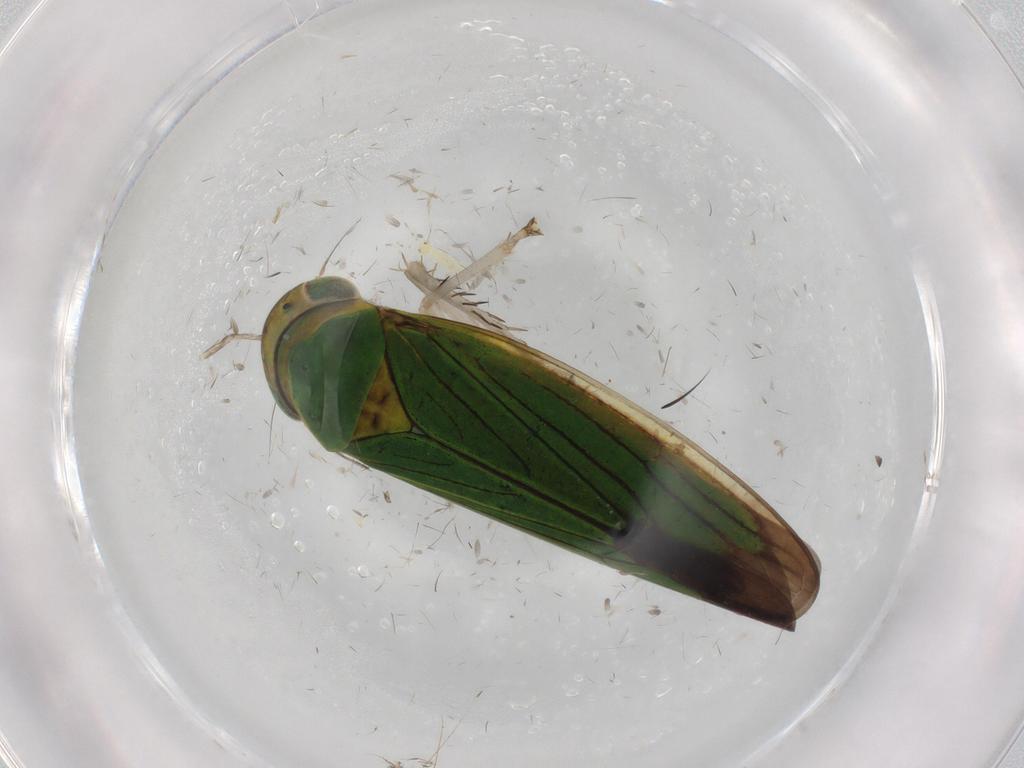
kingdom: Animalia
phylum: Arthropoda
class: Insecta
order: Hemiptera
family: Cicadellidae
